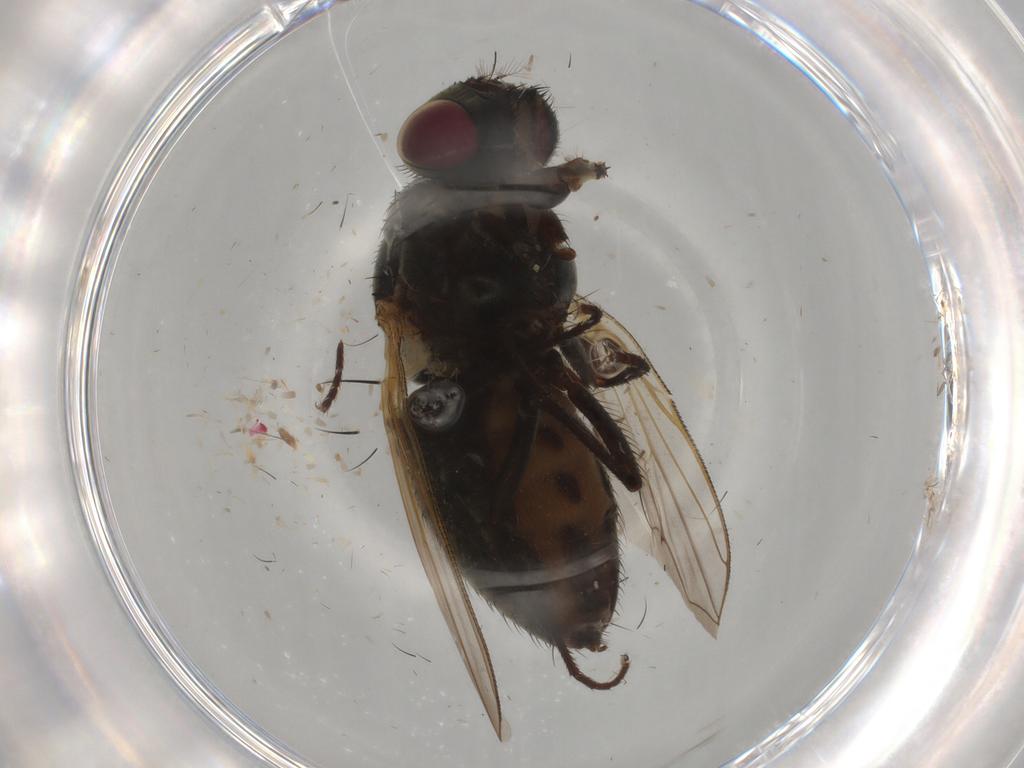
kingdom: Animalia
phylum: Arthropoda
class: Insecta
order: Diptera
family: Muscidae
